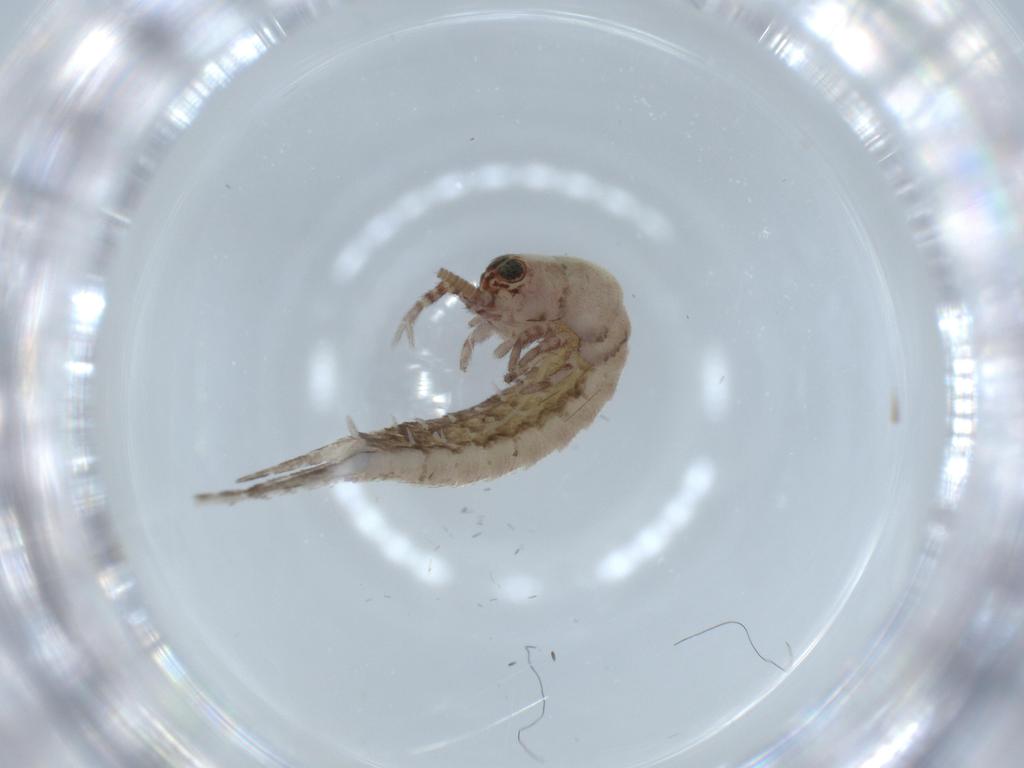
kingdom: Animalia
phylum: Arthropoda
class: Insecta
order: Archaeognatha
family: Machilidae
